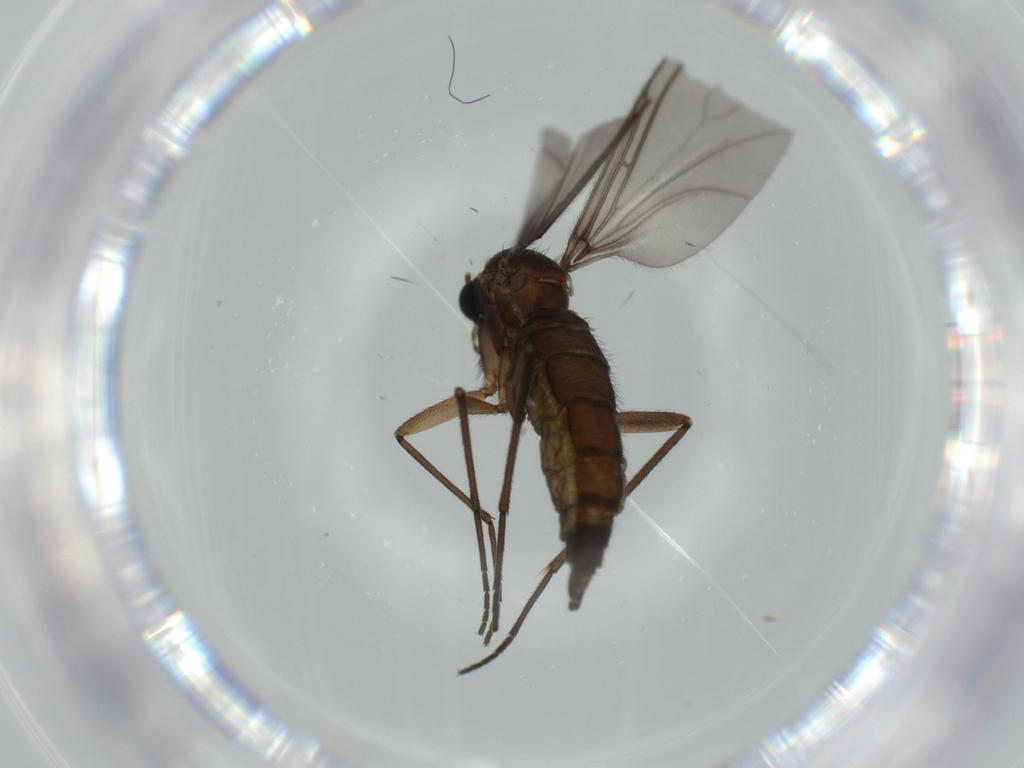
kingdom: Animalia
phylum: Arthropoda
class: Insecta
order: Diptera
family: Sciaridae
